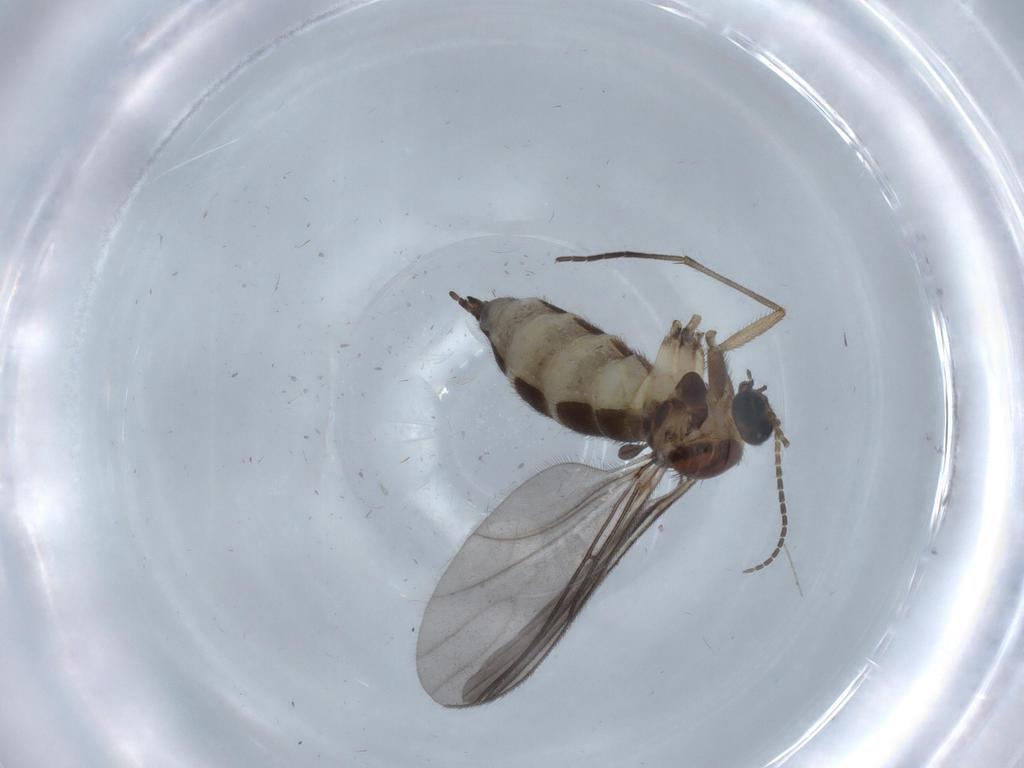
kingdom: Animalia
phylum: Arthropoda
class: Insecta
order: Diptera
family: Sciaridae
